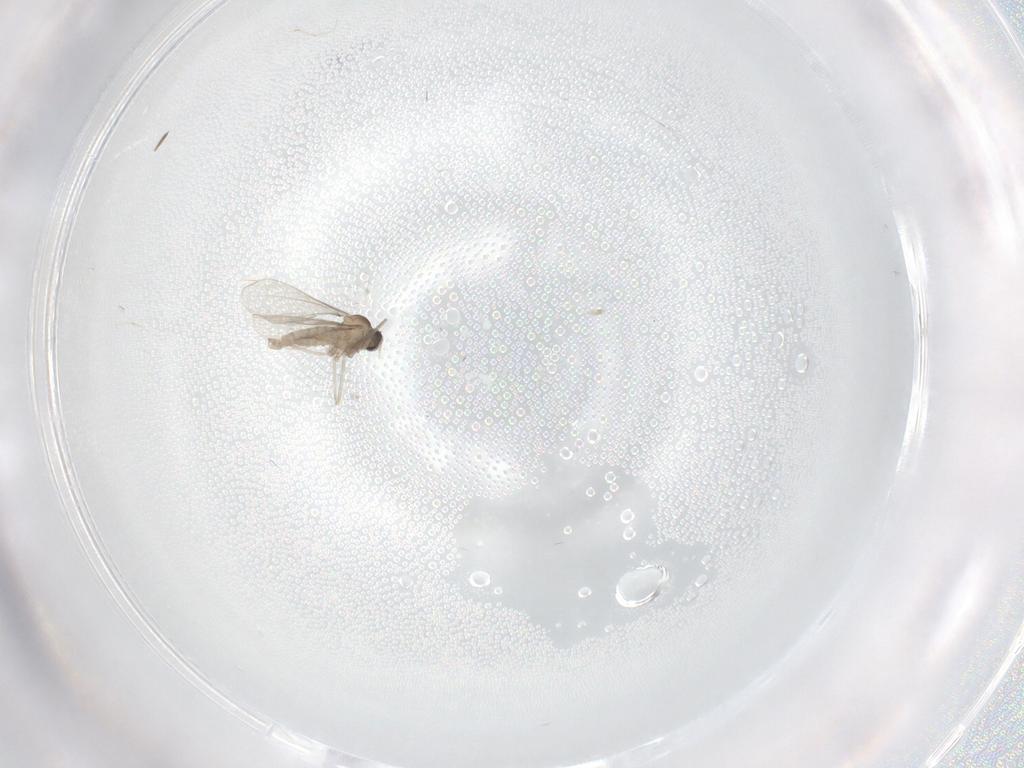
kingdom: Animalia
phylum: Arthropoda
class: Insecta
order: Diptera
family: Cecidomyiidae
